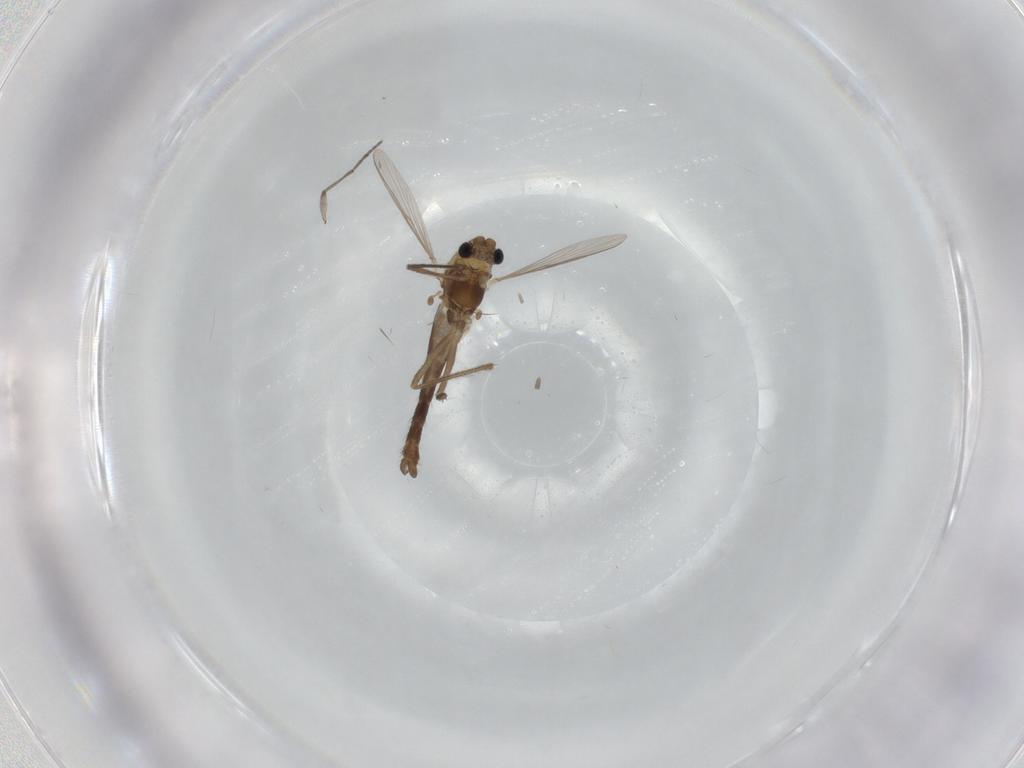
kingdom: Animalia
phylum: Arthropoda
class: Insecta
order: Diptera
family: Chironomidae
